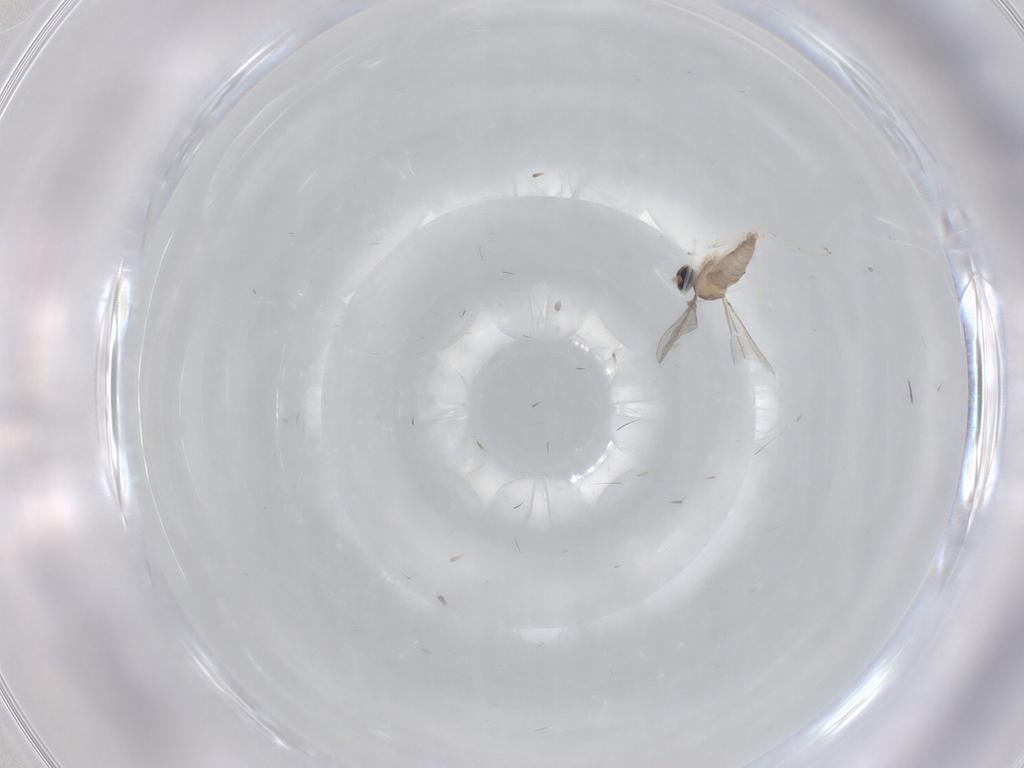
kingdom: Animalia
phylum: Arthropoda
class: Insecta
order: Diptera
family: Cecidomyiidae
